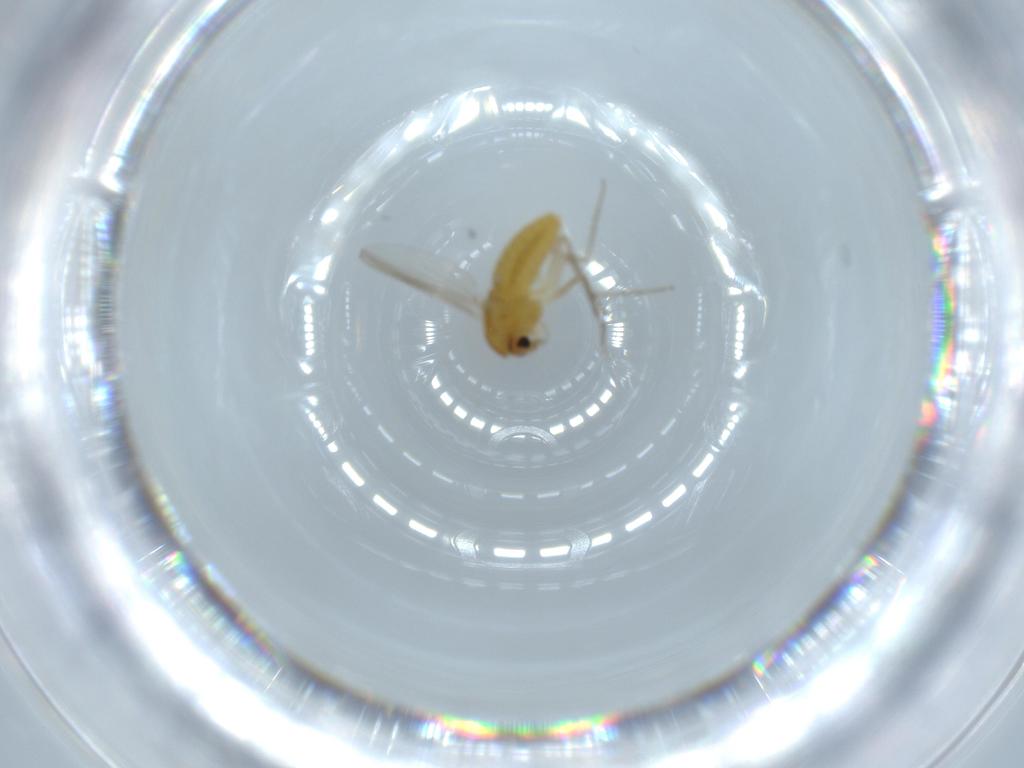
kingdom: Animalia
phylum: Arthropoda
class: Insecta
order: Diptera
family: Chironomidae
